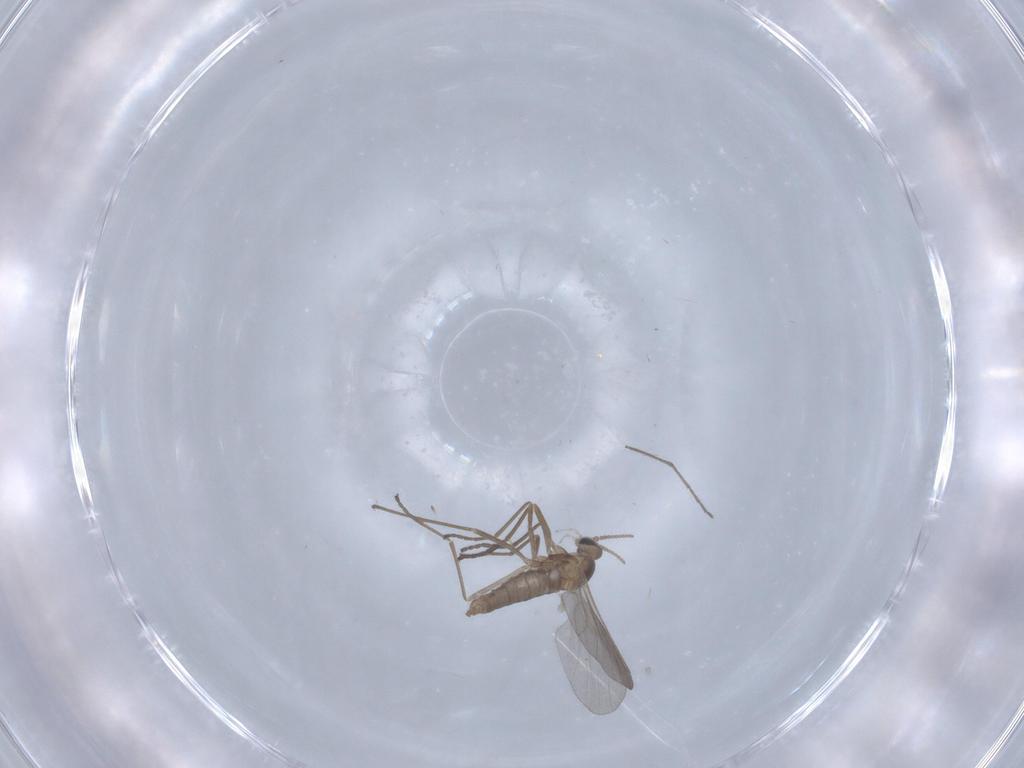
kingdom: Animalia
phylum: Arthropoda
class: Insecta
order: Diptera
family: Cecidomyiidae
